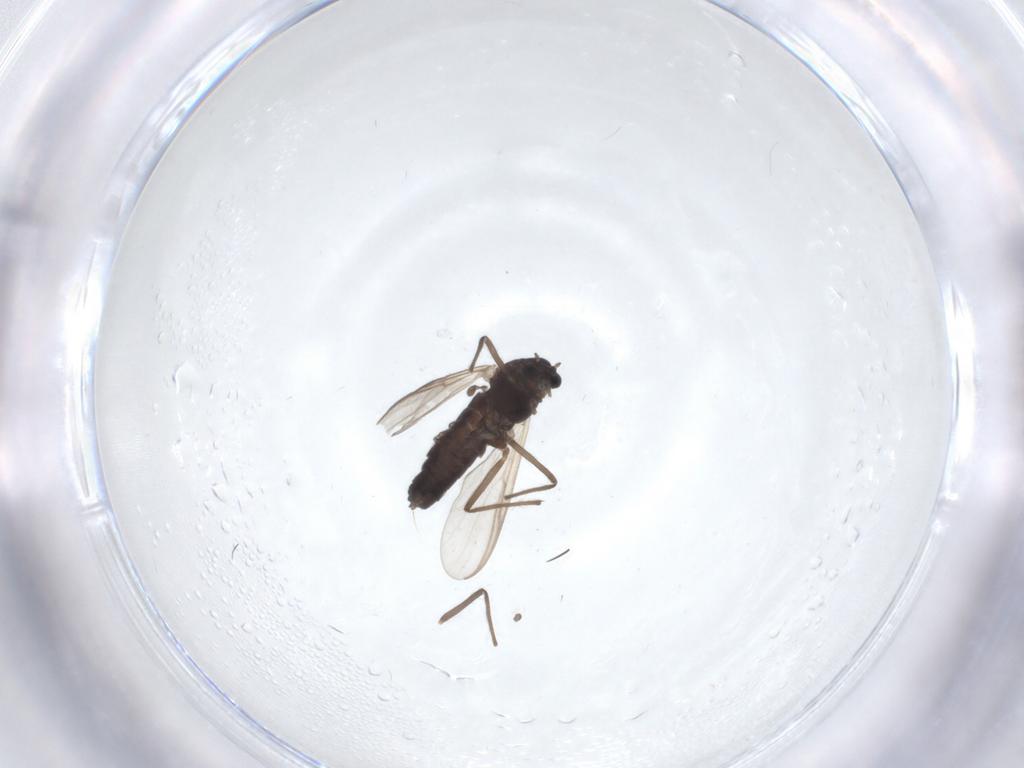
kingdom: Animalia
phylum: Arthropoda
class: Insecta
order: Diptera
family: Chironomidae
